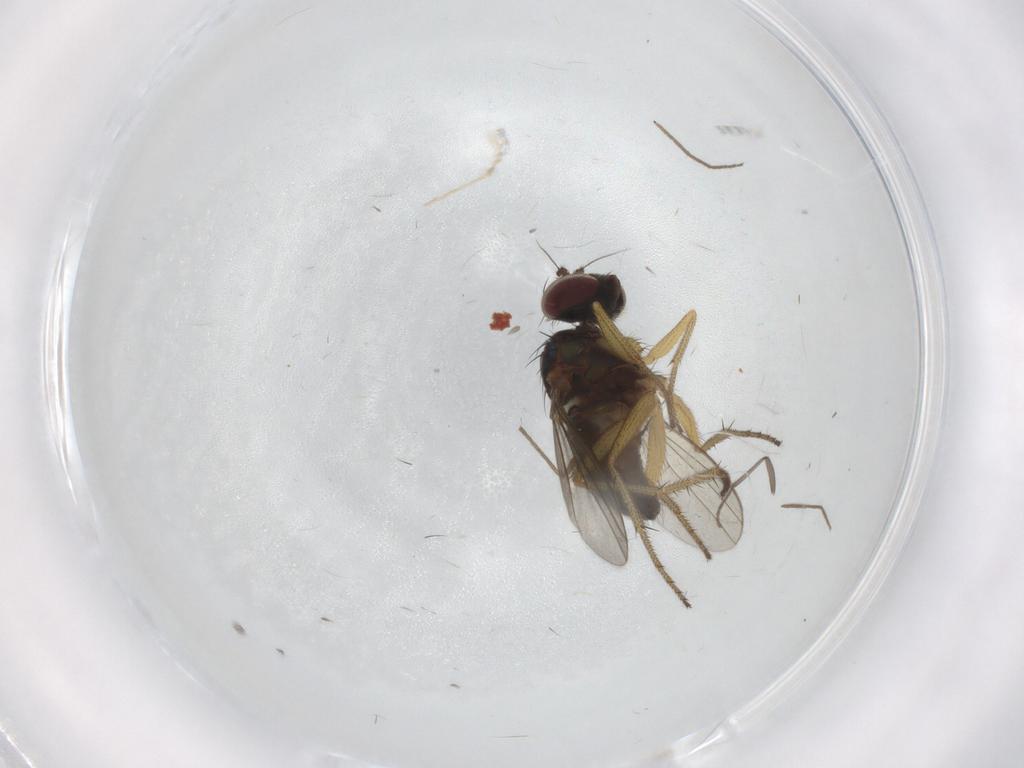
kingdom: Animalia
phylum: Arthropoda
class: Insecta
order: Diptera
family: Chironomidae
